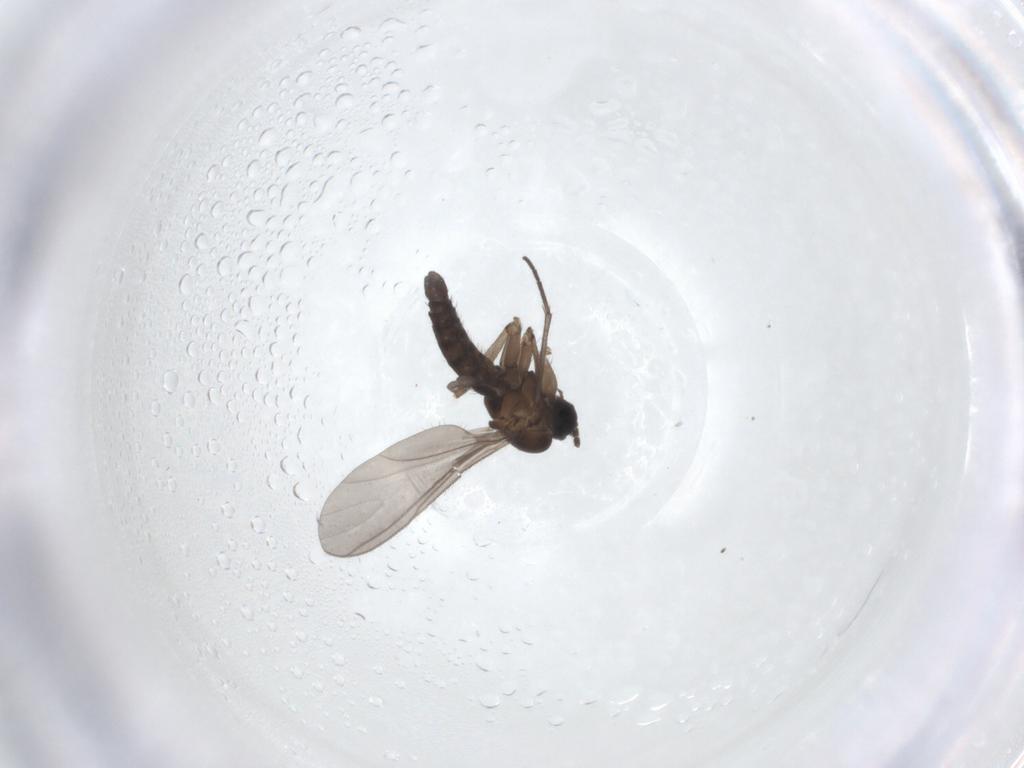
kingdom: Animalia
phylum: Arthropoda
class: Insecta
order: Diptera
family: Sciaridae
